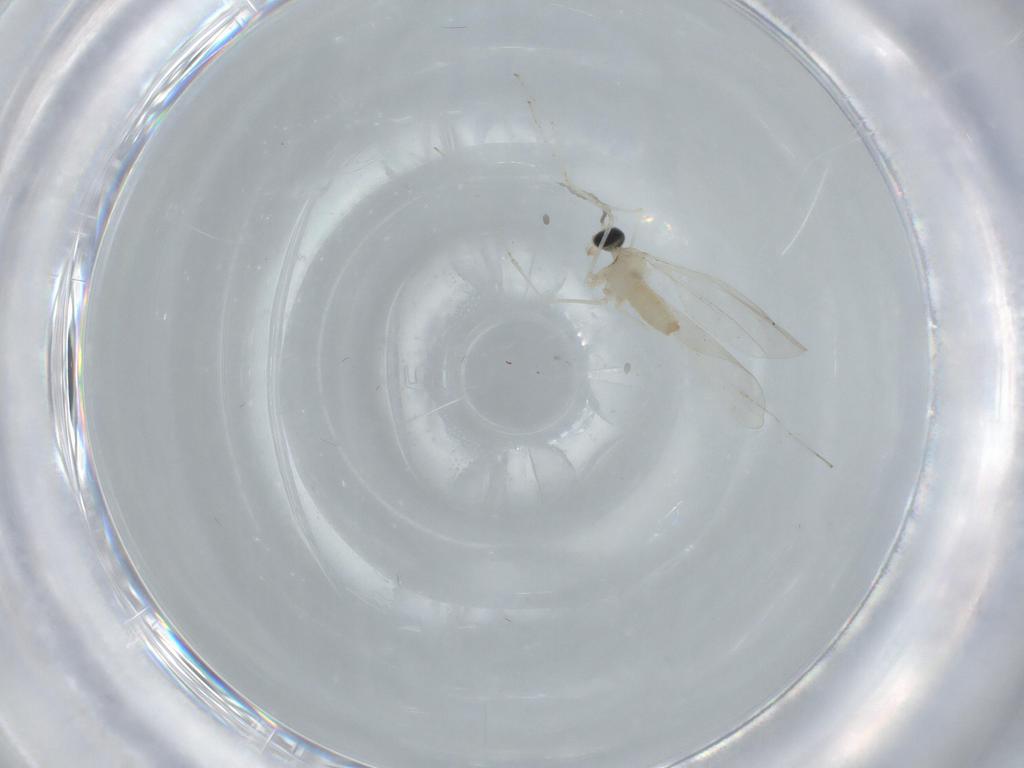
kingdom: Animalia
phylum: Arthropoda
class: Insecta
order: Diptera
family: Cecidomyiidae
